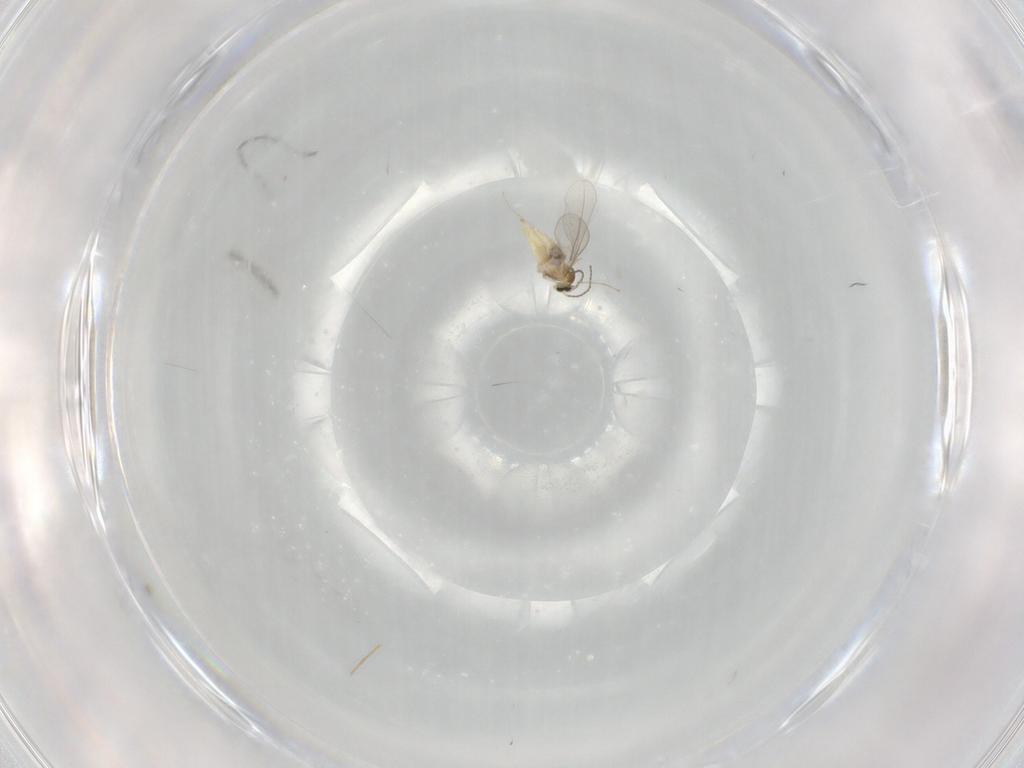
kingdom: Animalia
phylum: Arthropoda
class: Insecta
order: Diptera
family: Cecidomyiidae
